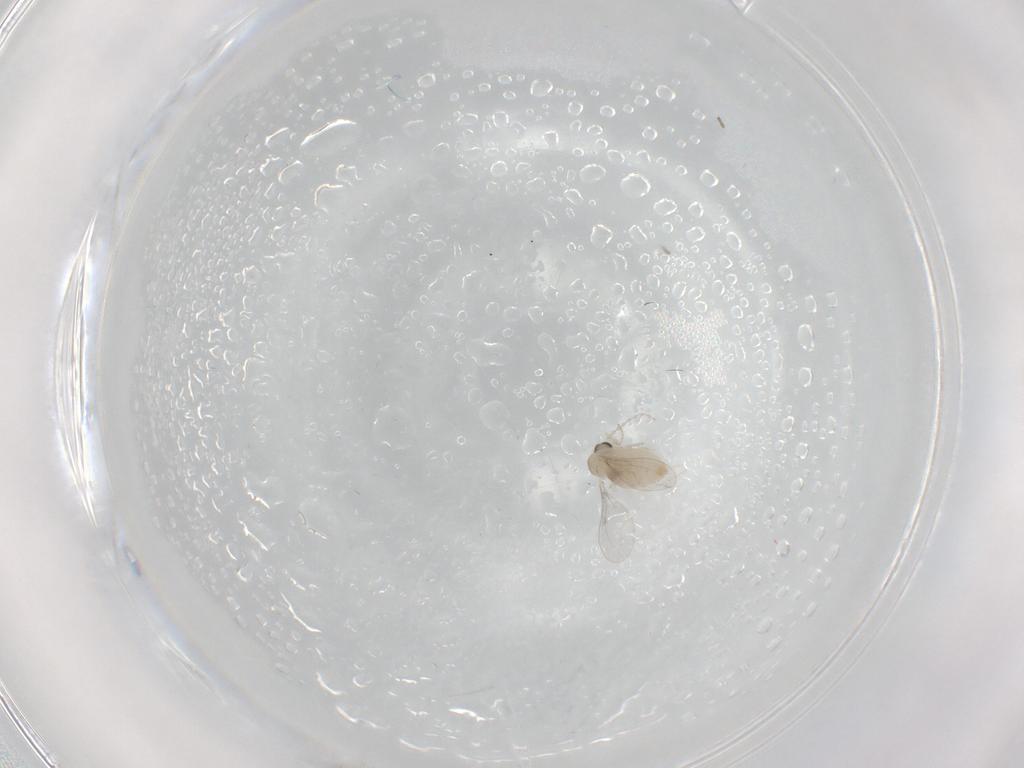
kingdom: Animalia
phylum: Arthropoda
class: Insecta
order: Diptera
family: Cecidomyiidae
